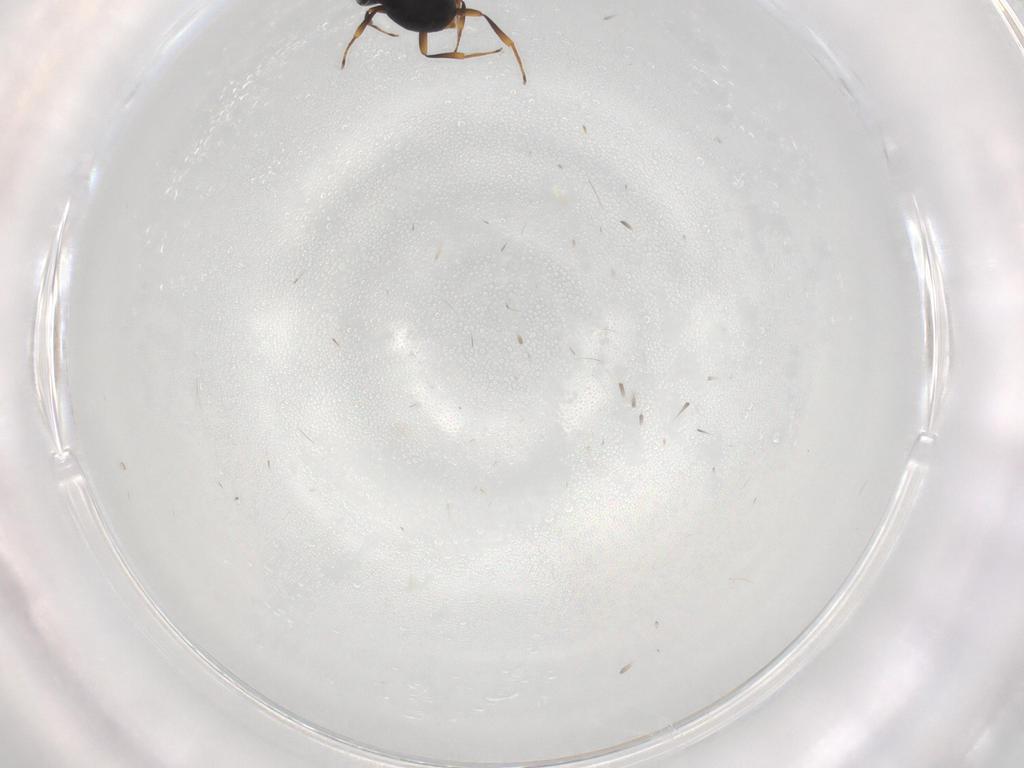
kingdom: Animalia
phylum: Arthropoda
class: Insecta
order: Hymenoptera
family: Scelionidae
